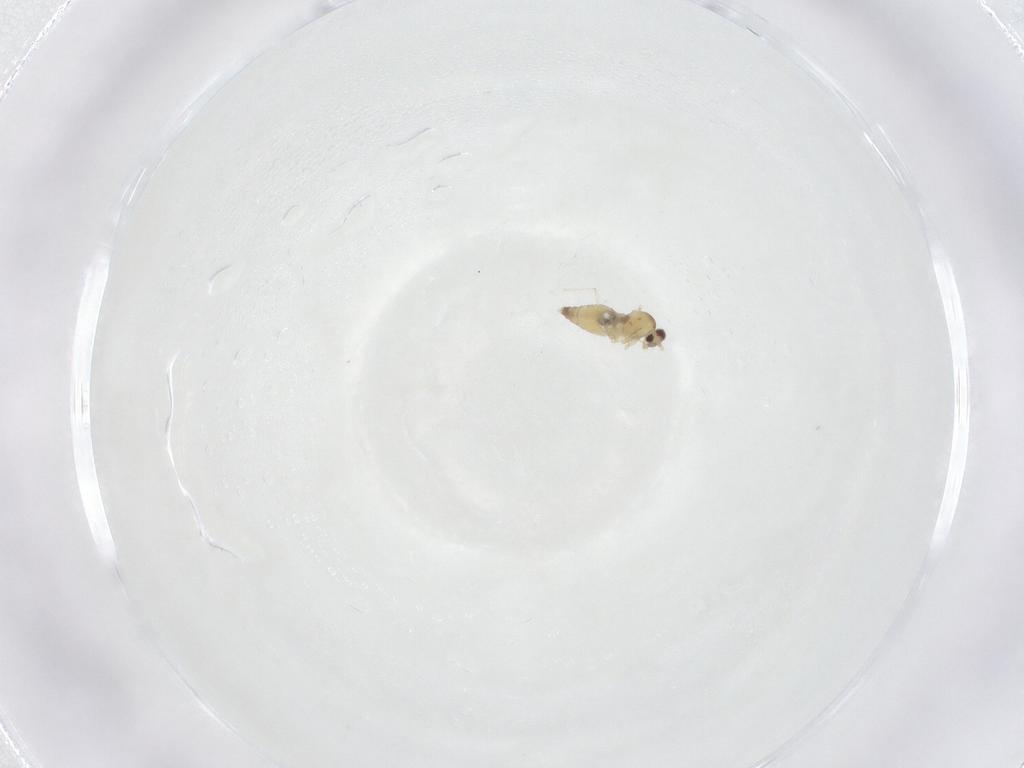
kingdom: Animalia
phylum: Arthropoda
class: Insecta
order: Diptera
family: Cecidomyiidae
